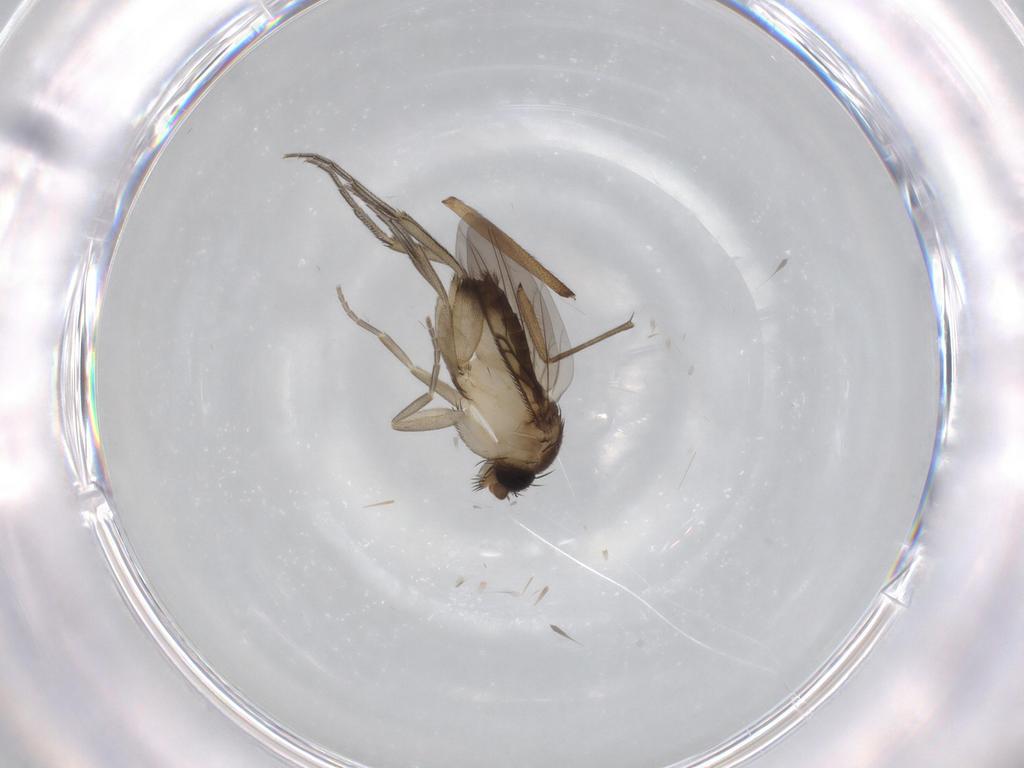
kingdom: Animalia
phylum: Arthropoda
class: Insecta
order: Diptera
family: Phoridae
